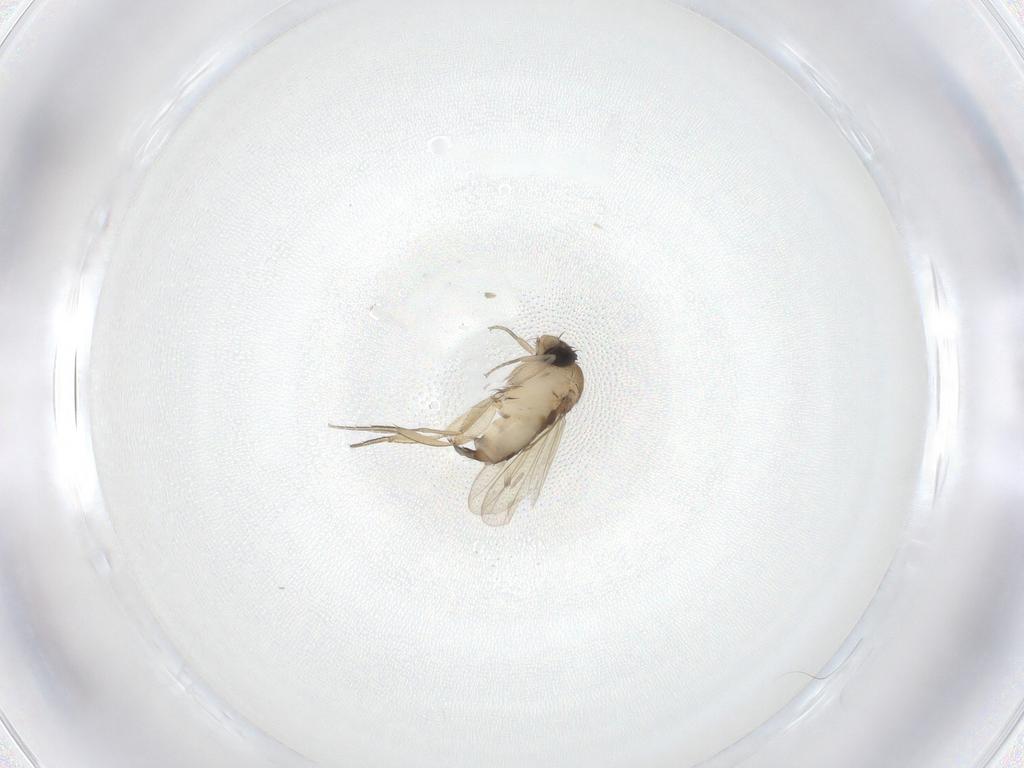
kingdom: Animalia
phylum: Arthropoda
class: Insecta
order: Diptera
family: Phoridae
